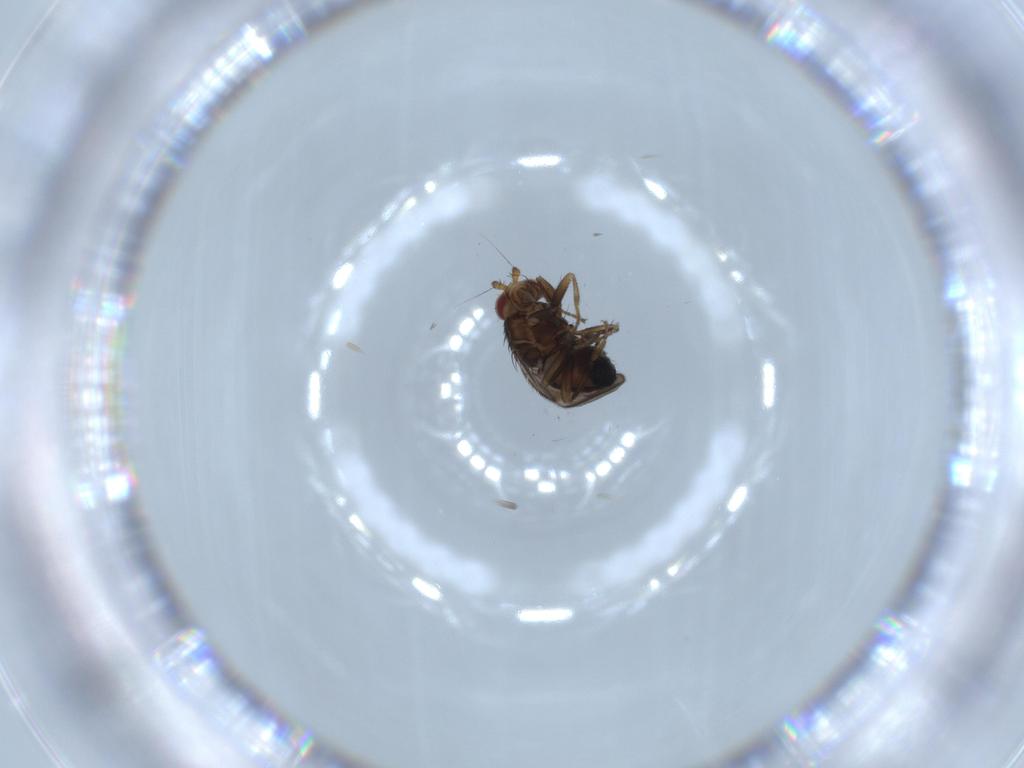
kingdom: Animalia
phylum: Arthropoda
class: Insecta
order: Diptera
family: Sphaeroceridae
